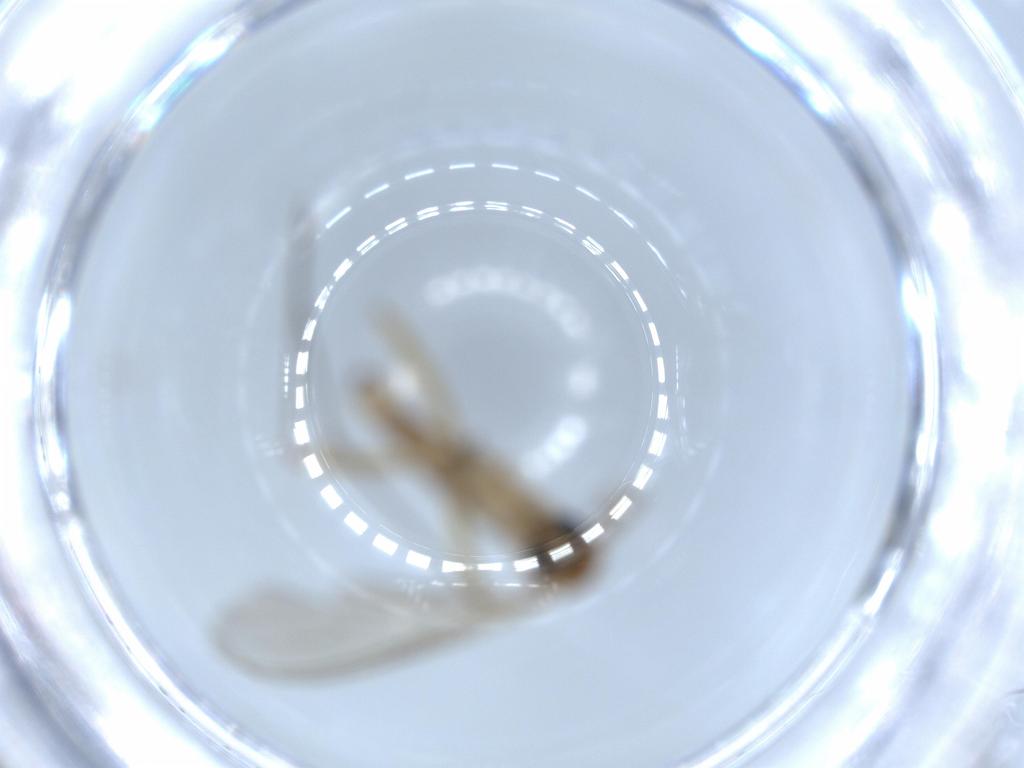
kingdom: Animalia
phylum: Arthropoda
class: Insecta
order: Diptera
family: Sciaridae
